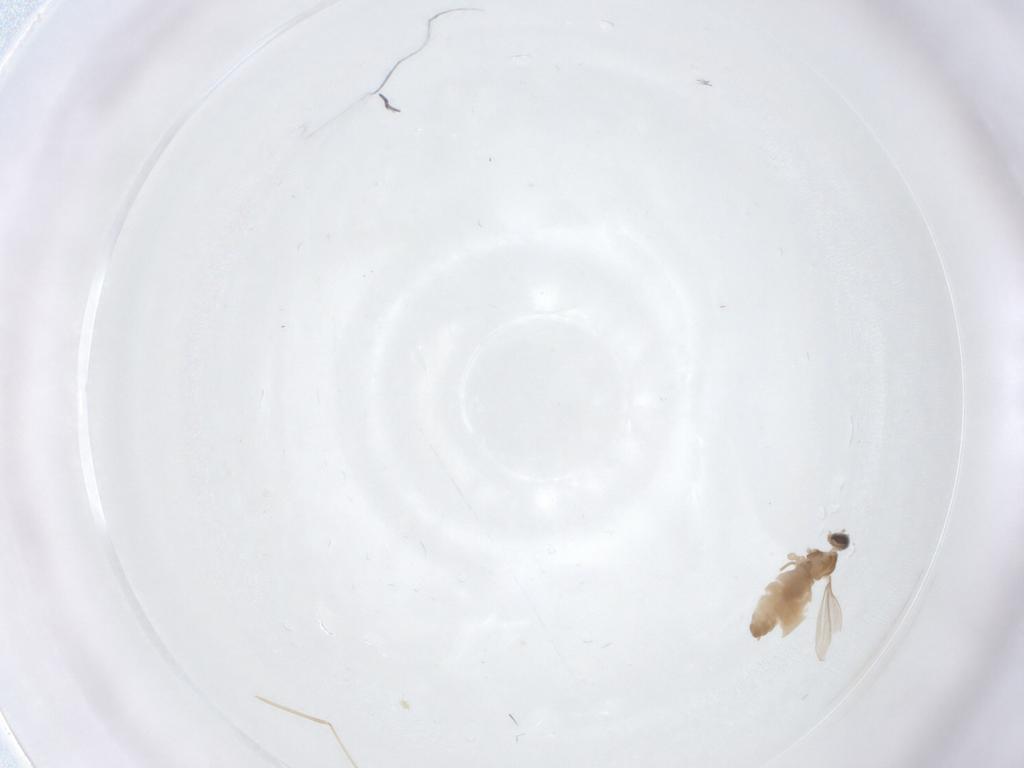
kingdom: Animalia
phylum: Arthropoda
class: Insecta
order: Diptera
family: Cecidomyiidae
